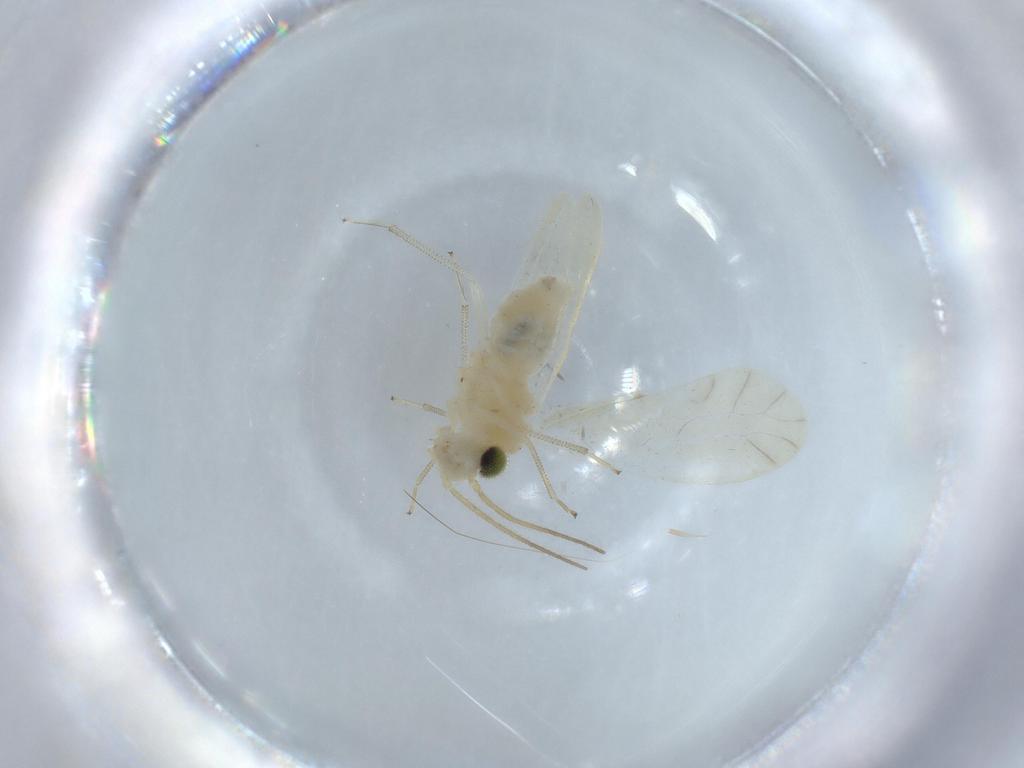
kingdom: Animalia
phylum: Arthropoda
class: Insecta
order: Psocodea
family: Caeciliusidae
